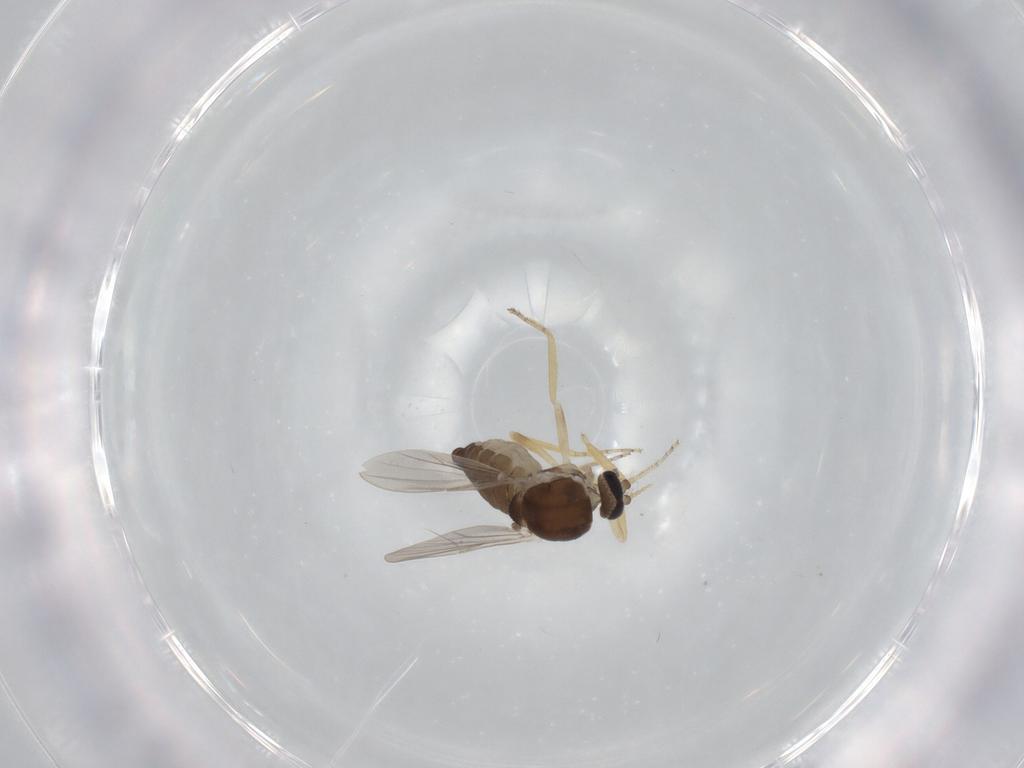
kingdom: Animalia
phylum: Arthropoda
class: Insecta
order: Diptera
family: Ceratopogonidae
